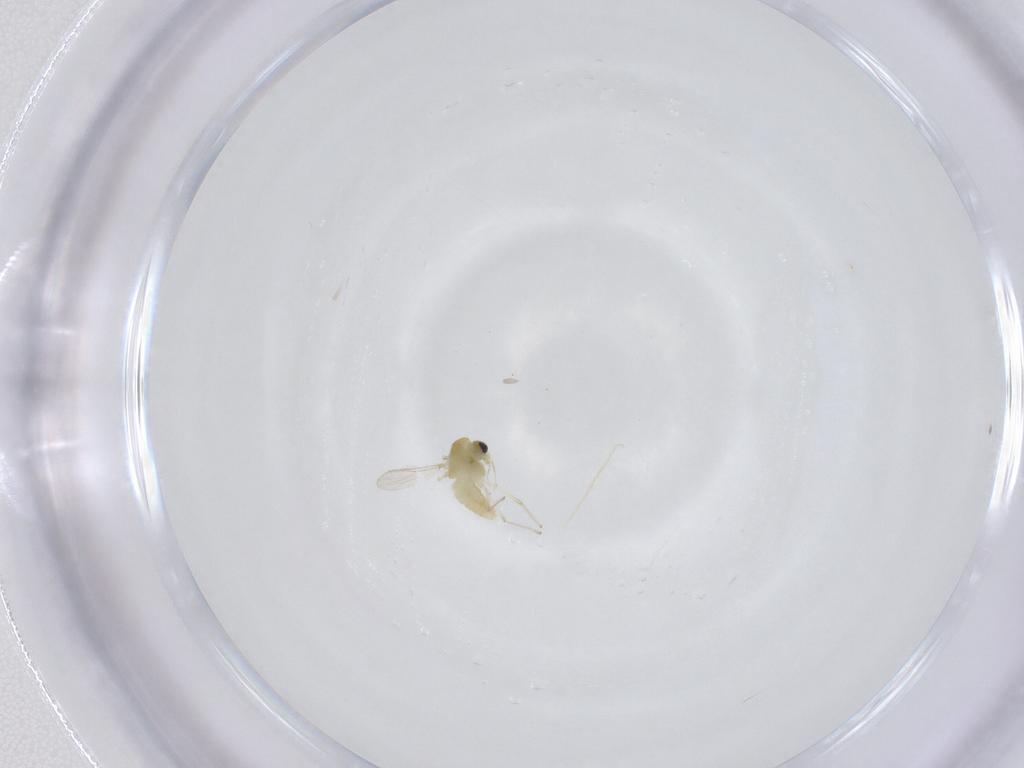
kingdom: Animalia
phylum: Arthropoda
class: Insecta
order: Diptera
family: Chironomidae
